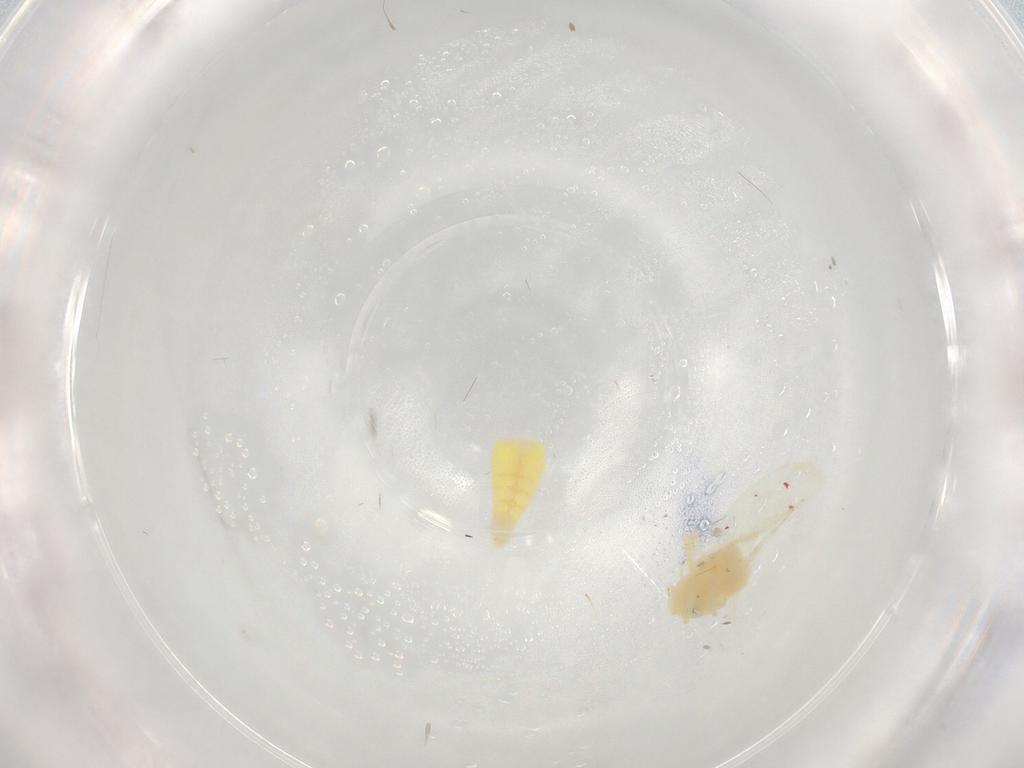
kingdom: Animalia
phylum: Arthropoda
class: Insecta
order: Hemiptera
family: Cicadellidae
